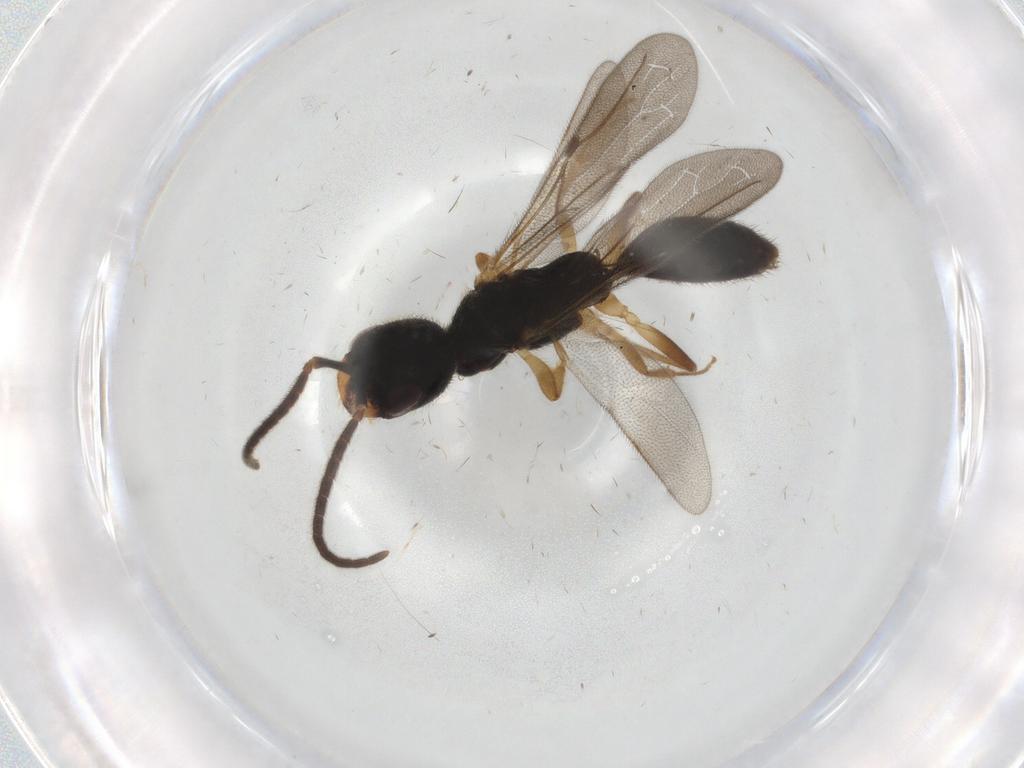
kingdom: Animalia
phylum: Arthropoda
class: Insecta
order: Hymenoptera
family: Bethylidae
